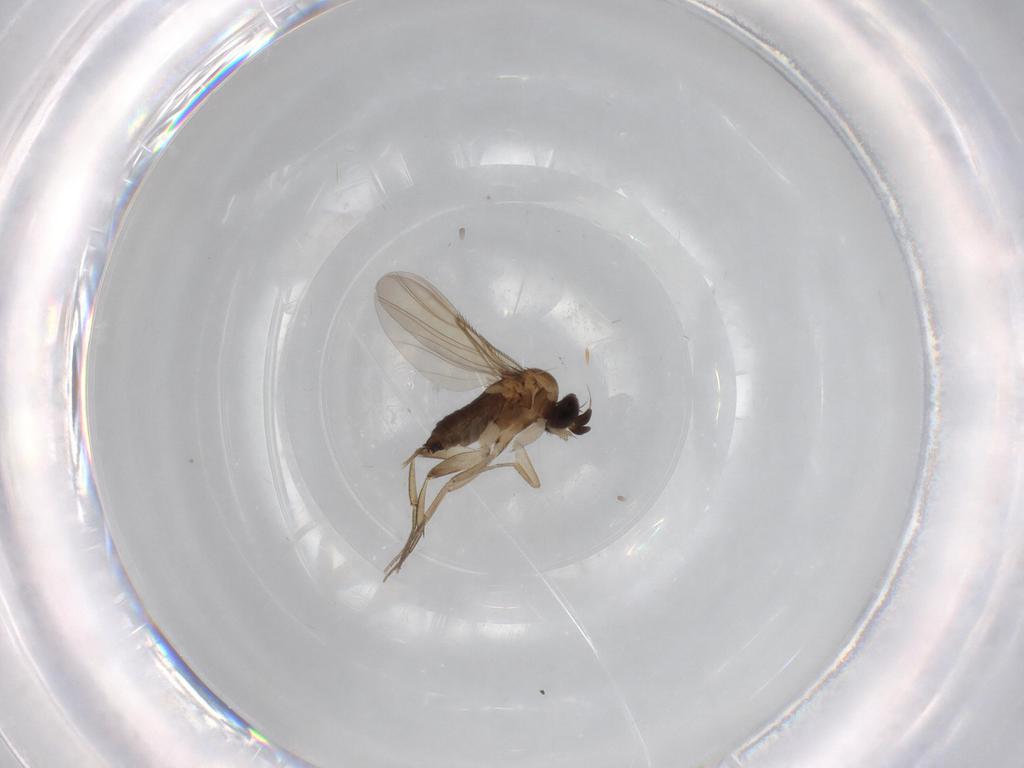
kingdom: Animalia
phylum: Arthropoda
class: Insecta
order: Diptera
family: Phoridae
